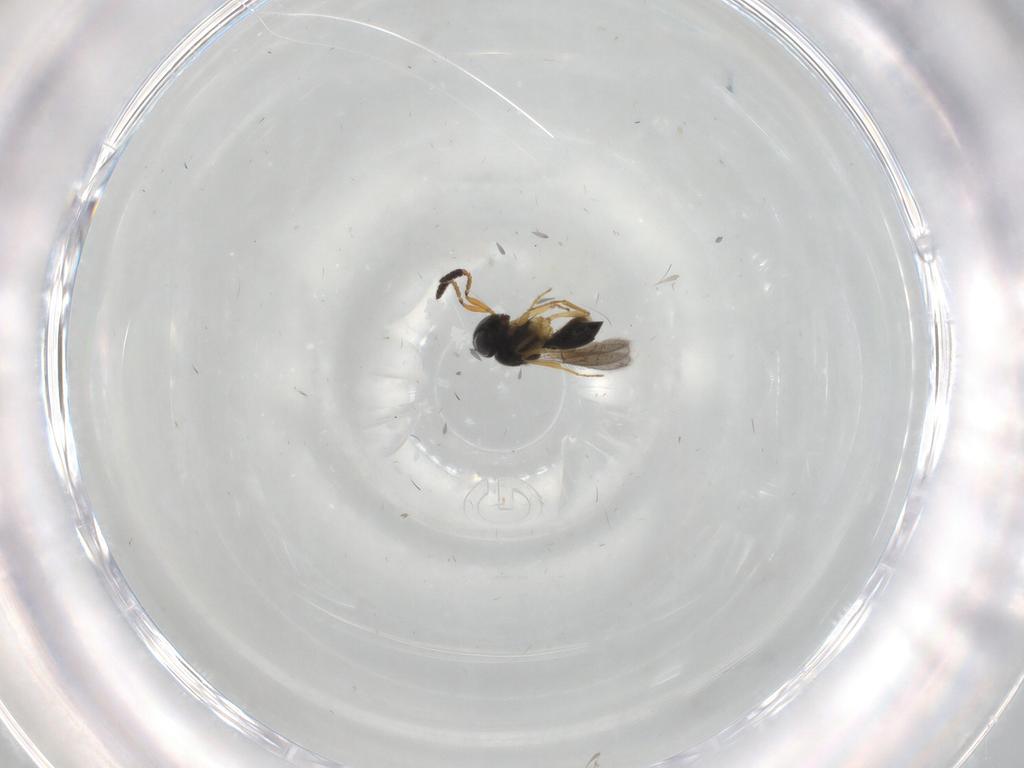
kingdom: Animalia
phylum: Arthropoda
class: Insecta
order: Hymenoptera
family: Scelionidae
